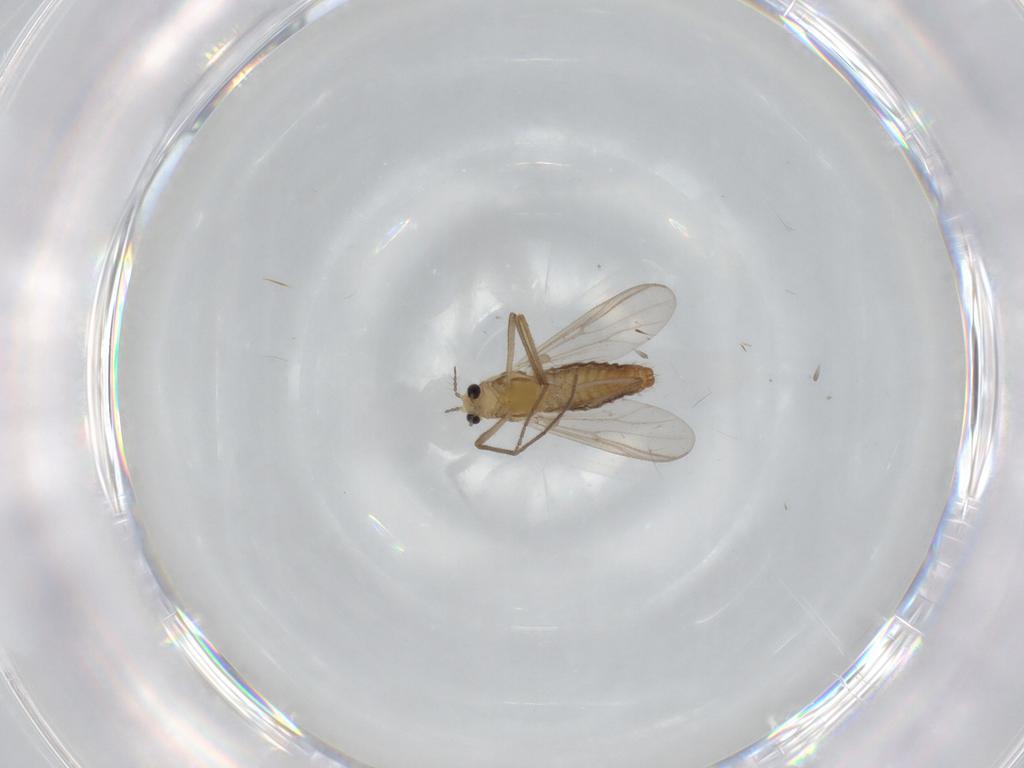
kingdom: Animalia
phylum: Arthropoda
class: Insecta
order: Diptera
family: Chironomidae
